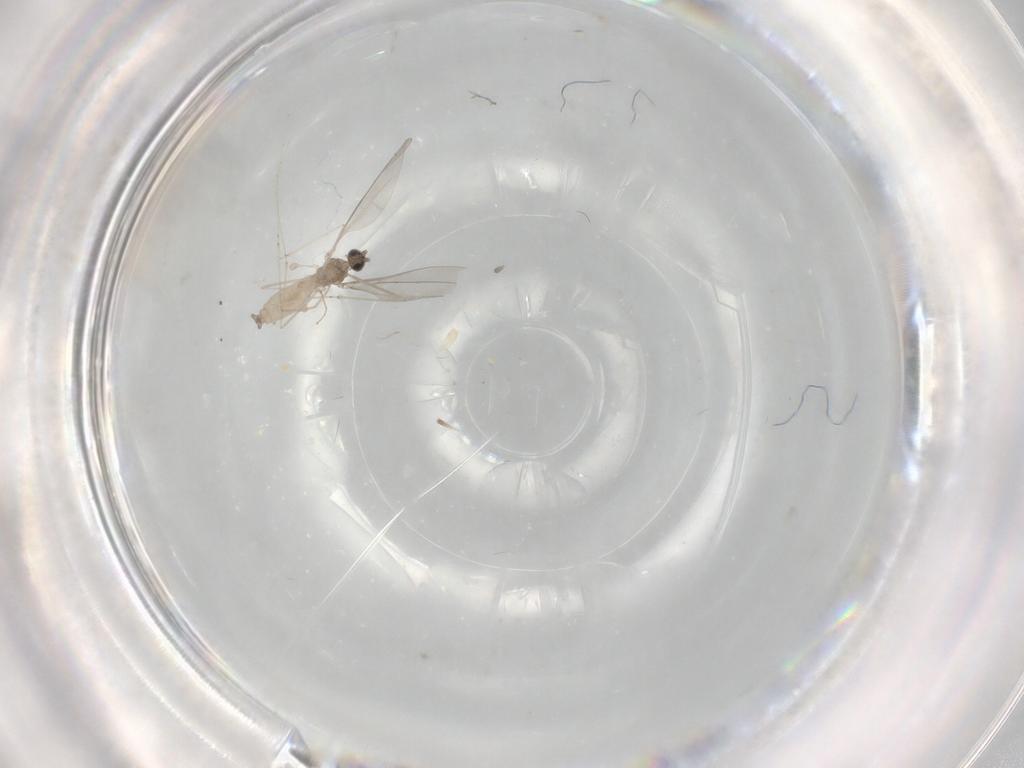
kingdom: Animalia
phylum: Arthropoda
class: Insecta
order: Diptera
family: Cecidomyiidae
